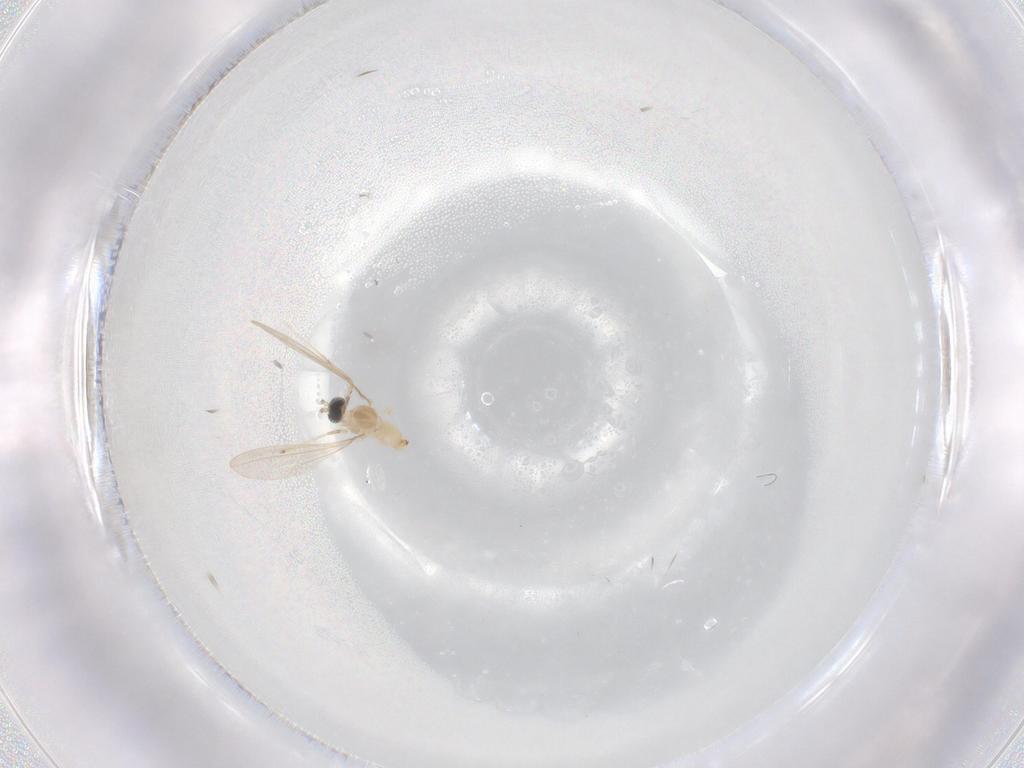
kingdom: Animalia
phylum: Arthropoda
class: Insecta
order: Diptera
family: Cecidomyiidae
